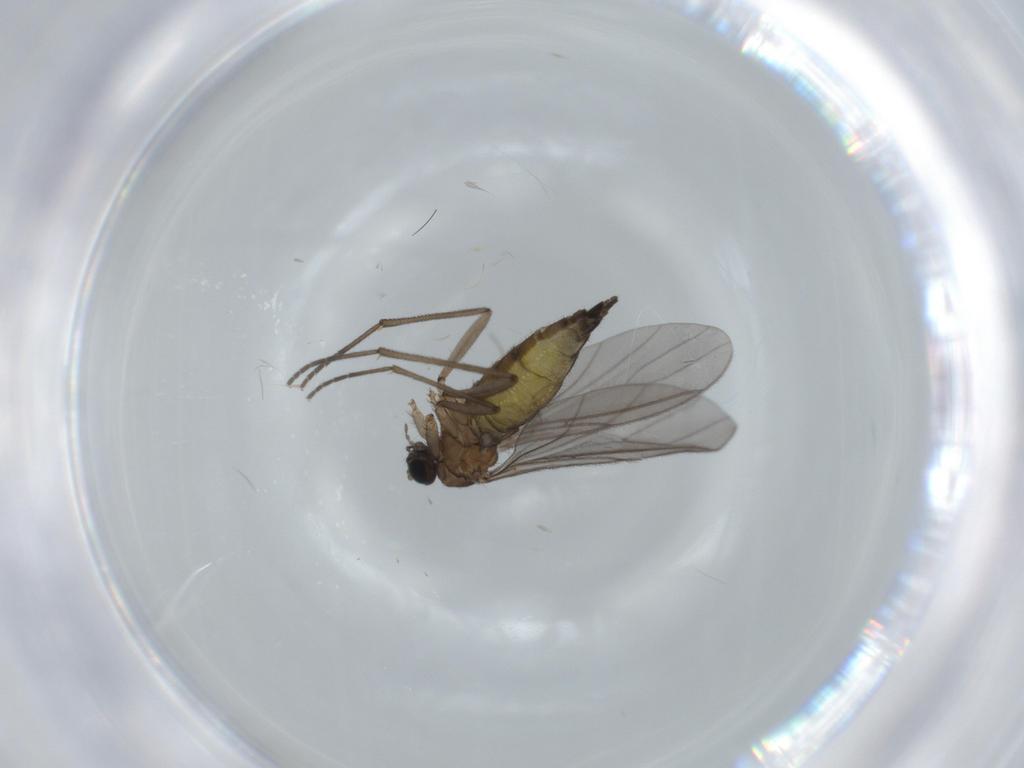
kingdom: Animalia
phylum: Arthropoda
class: Insecta
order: Diptera
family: Sciaridae
